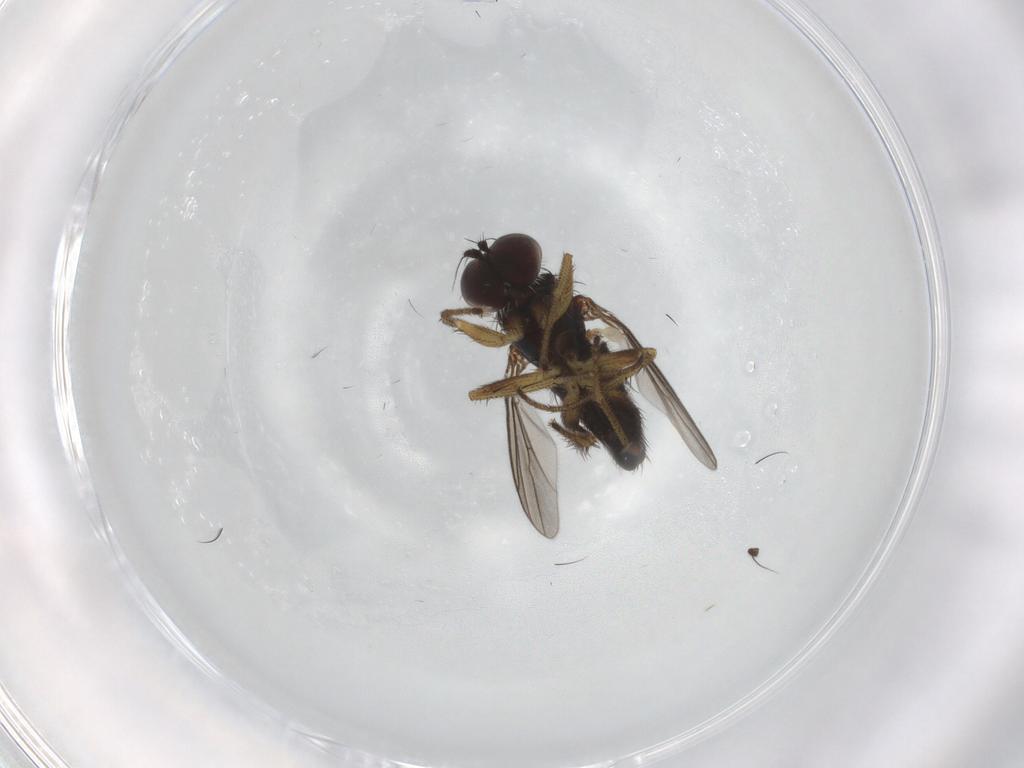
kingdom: Animalia
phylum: Arthropoda
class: Insecta
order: Diptera
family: Dolichopodidae
